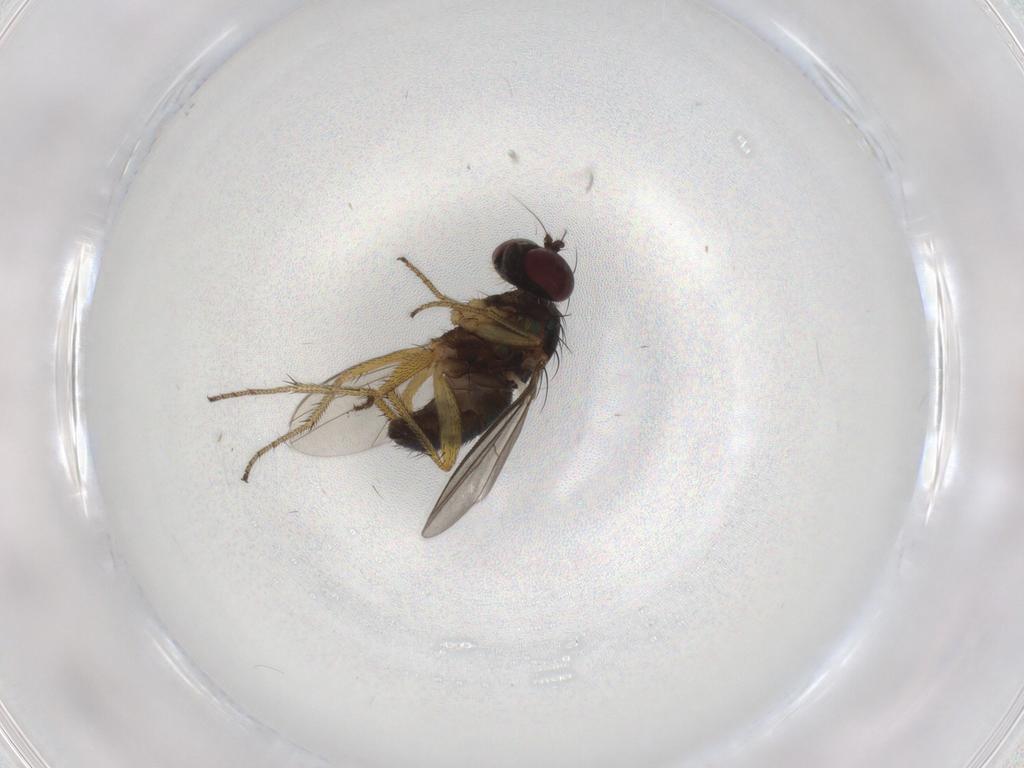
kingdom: Animalia
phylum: Arthropoda
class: Insecta
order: Diptera
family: Dolichopodidae
